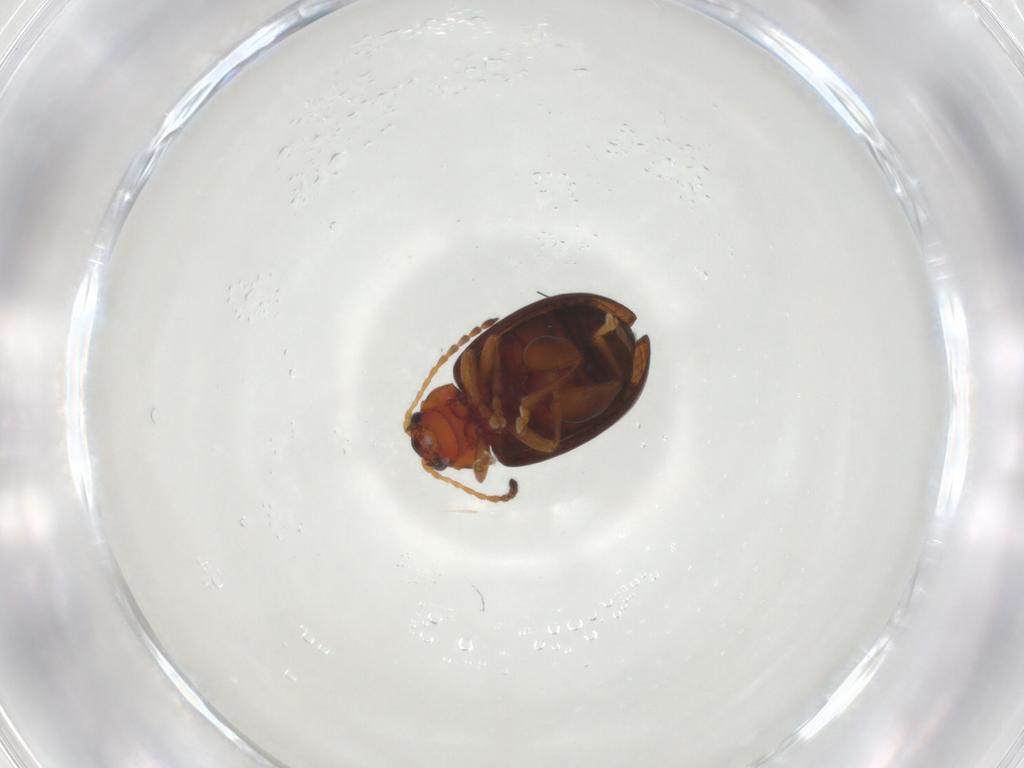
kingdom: Animalia
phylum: Arthropoda
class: Insecta
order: Coleoptera
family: Chrysomelidae
